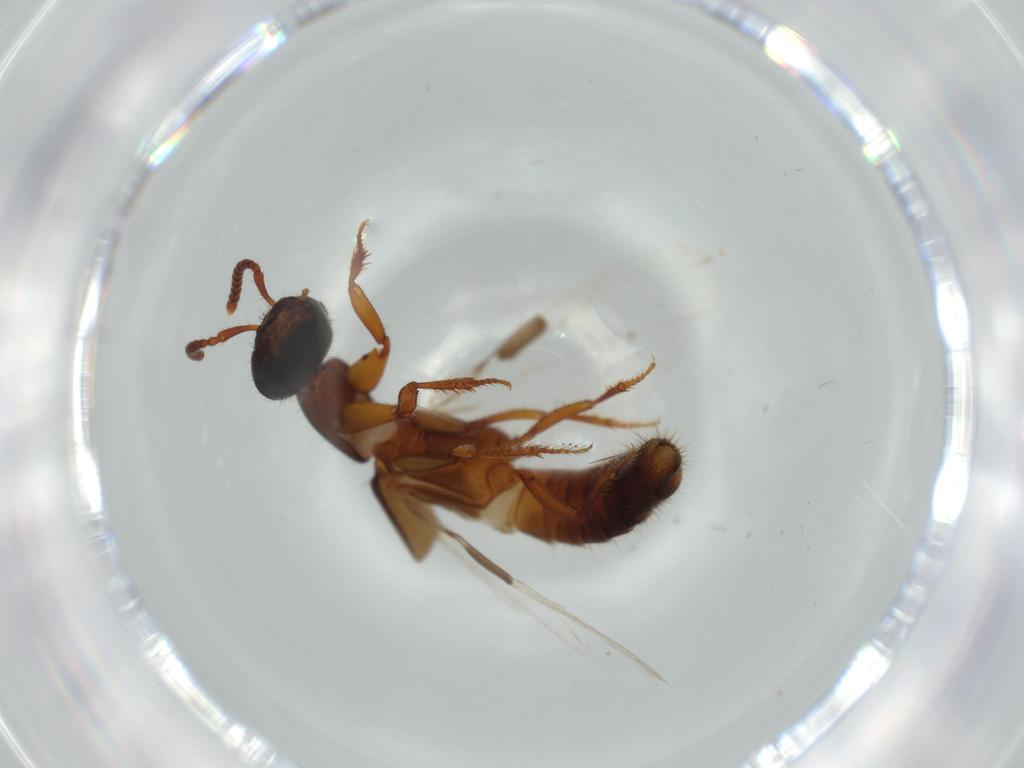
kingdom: Animalia
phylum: Arthropoda
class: Insecta
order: Coleoptera
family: Staphylinidae
